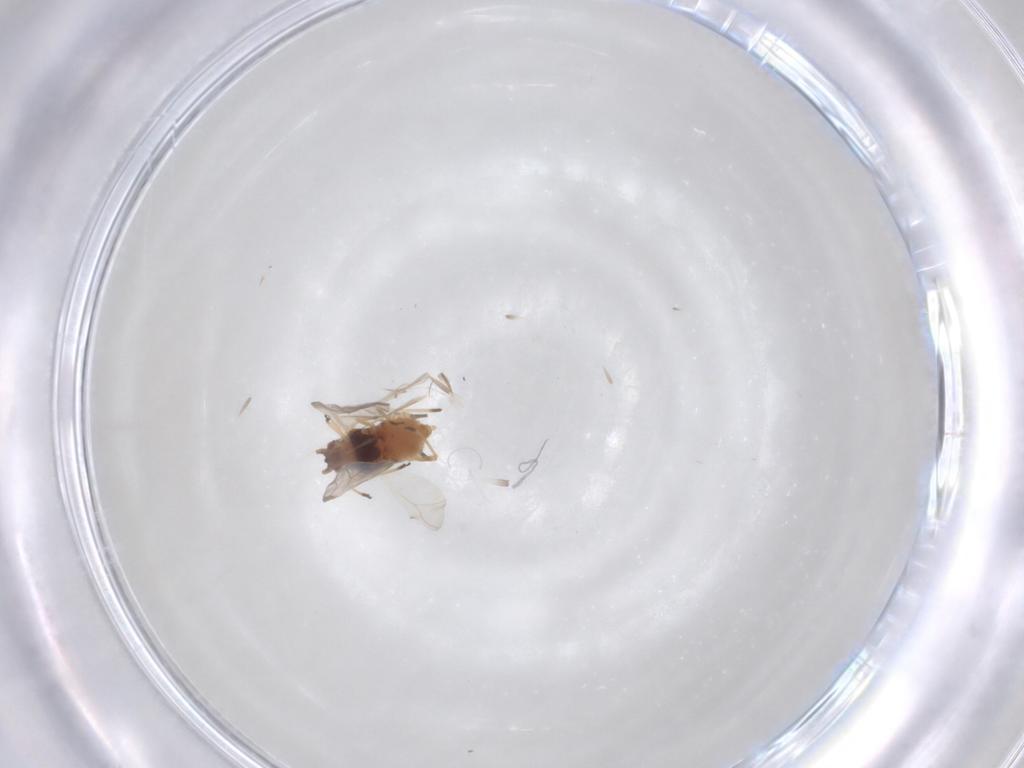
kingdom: Animalia
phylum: Arthropoda
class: Insecta
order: Hemiptera
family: Aphididae
